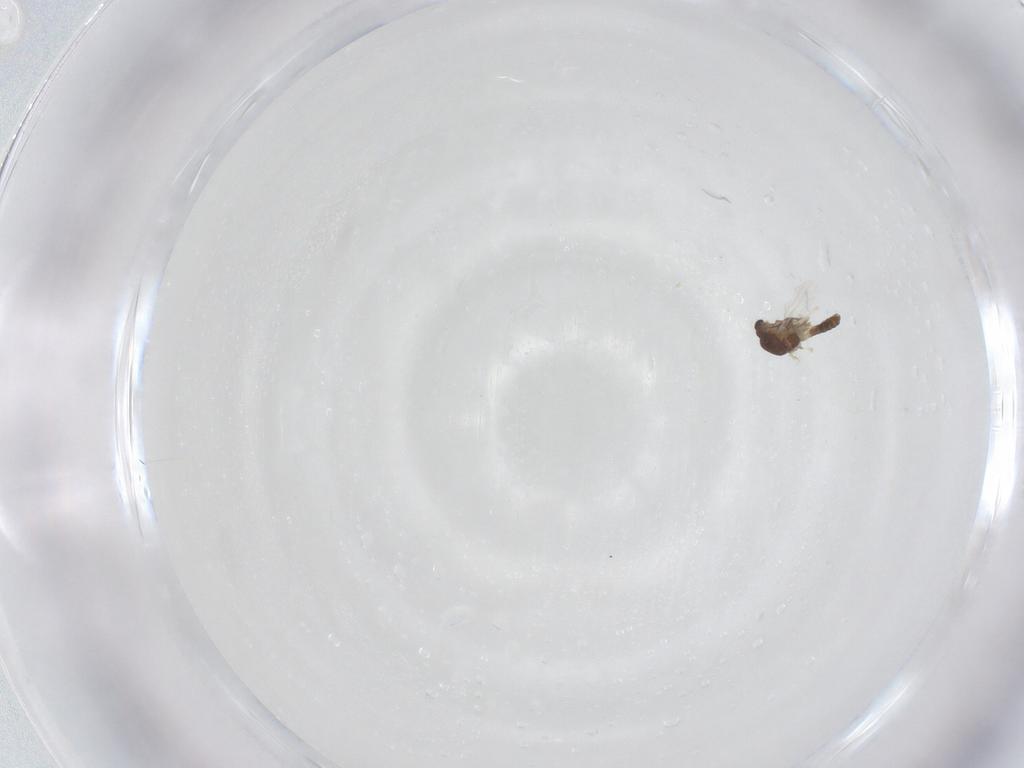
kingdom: Animalia
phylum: Arthropoda
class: Insecta
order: Diptera
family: Chironomidae
